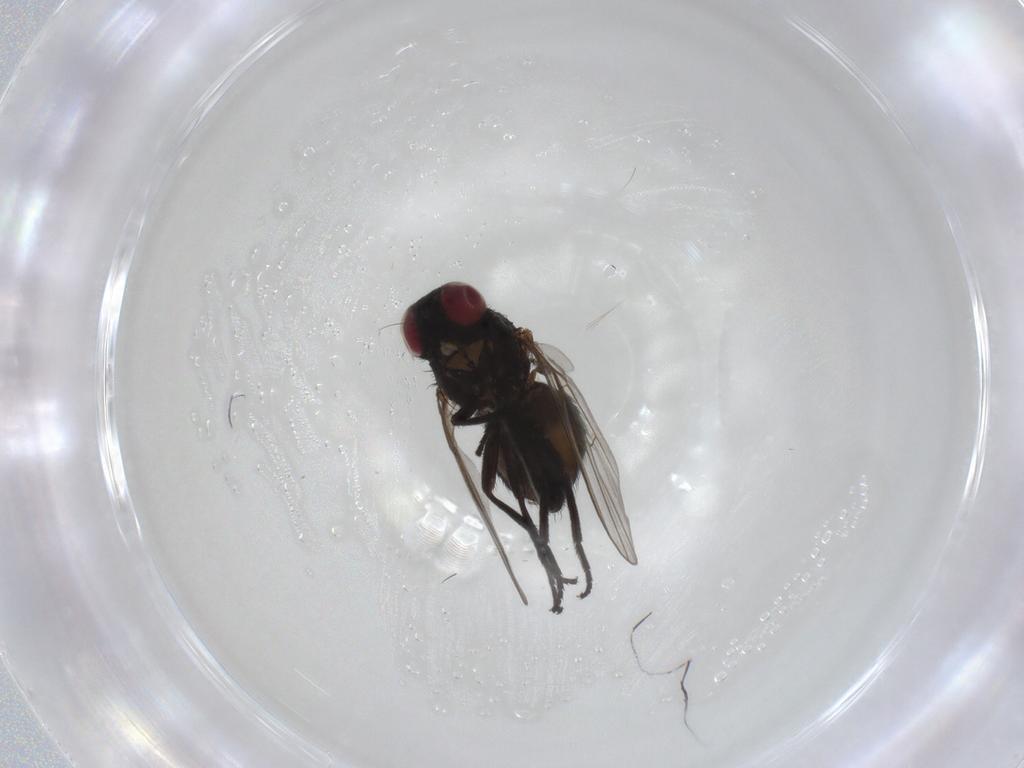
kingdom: Animalia
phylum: Arthropoda
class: Insecta
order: Diptera
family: Agromyzidae
